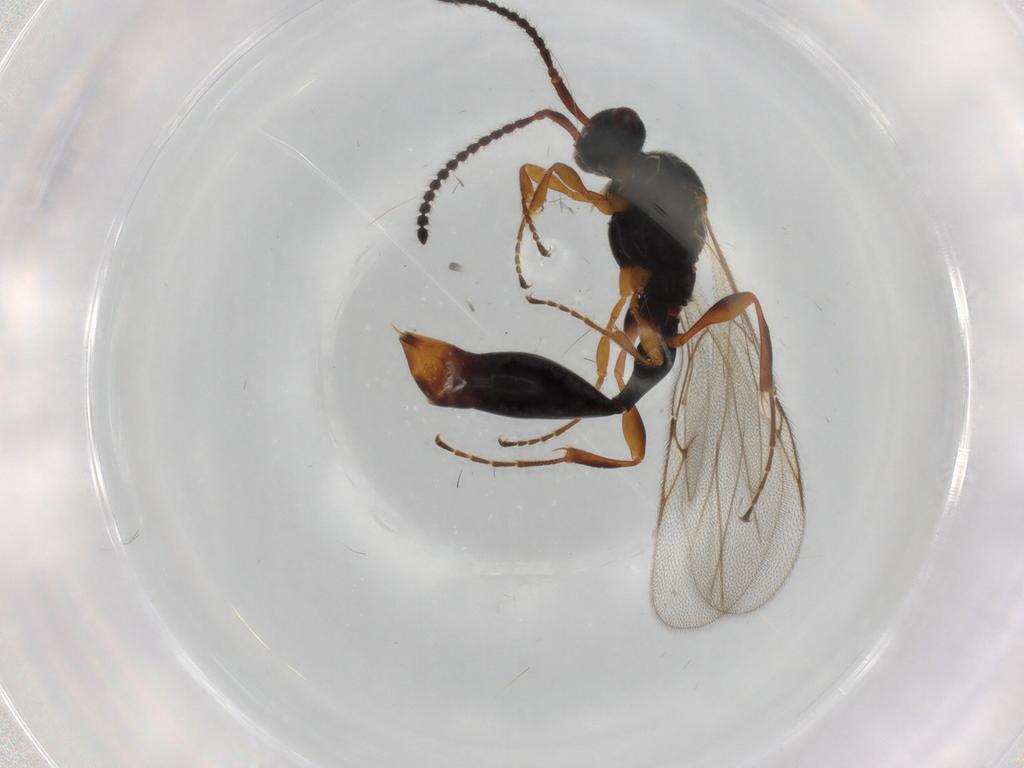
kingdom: Animalia
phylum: Arthropoda
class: Insecta
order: Hymenoptera
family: Diapriidae
